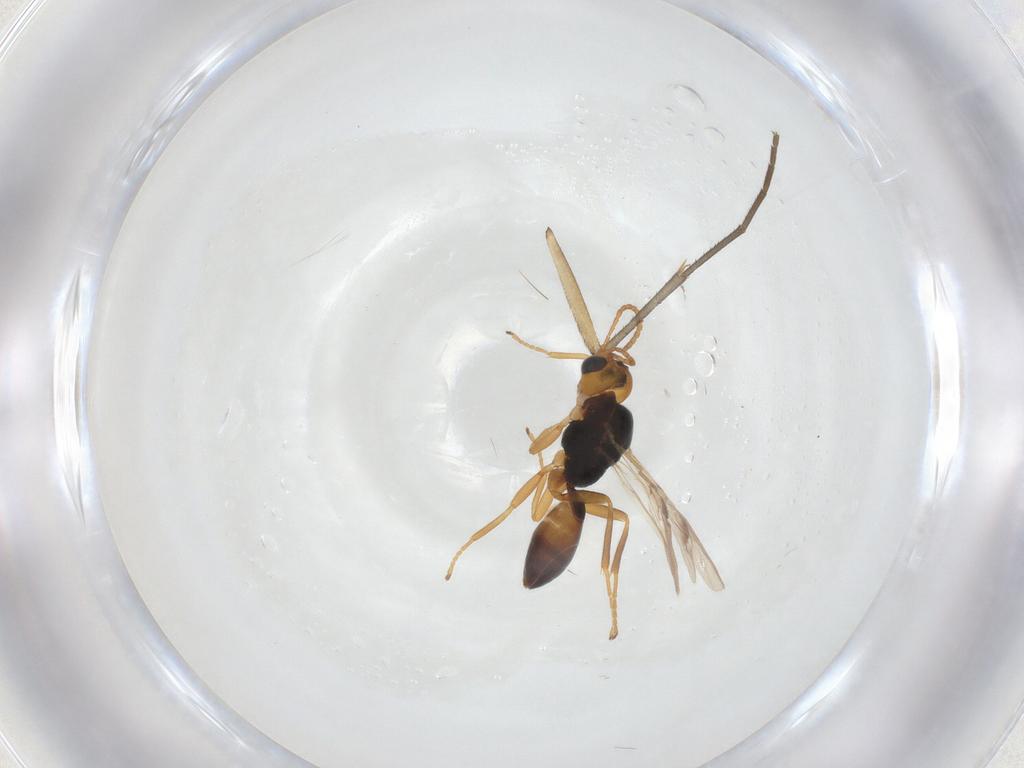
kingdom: Animalia
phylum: Arthropoda
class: Insecta
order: Hymenoptera
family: Braconidae
